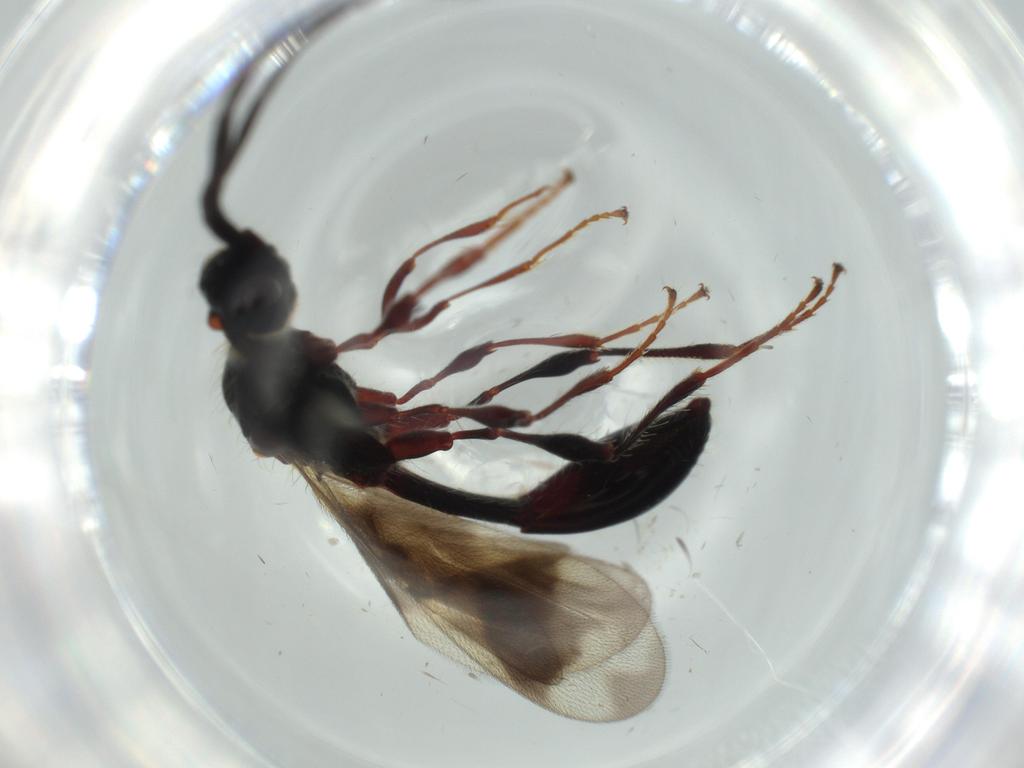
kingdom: Animalia
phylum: Arthropoda
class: Insecta
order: Hymenoptera
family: Diapriidae
